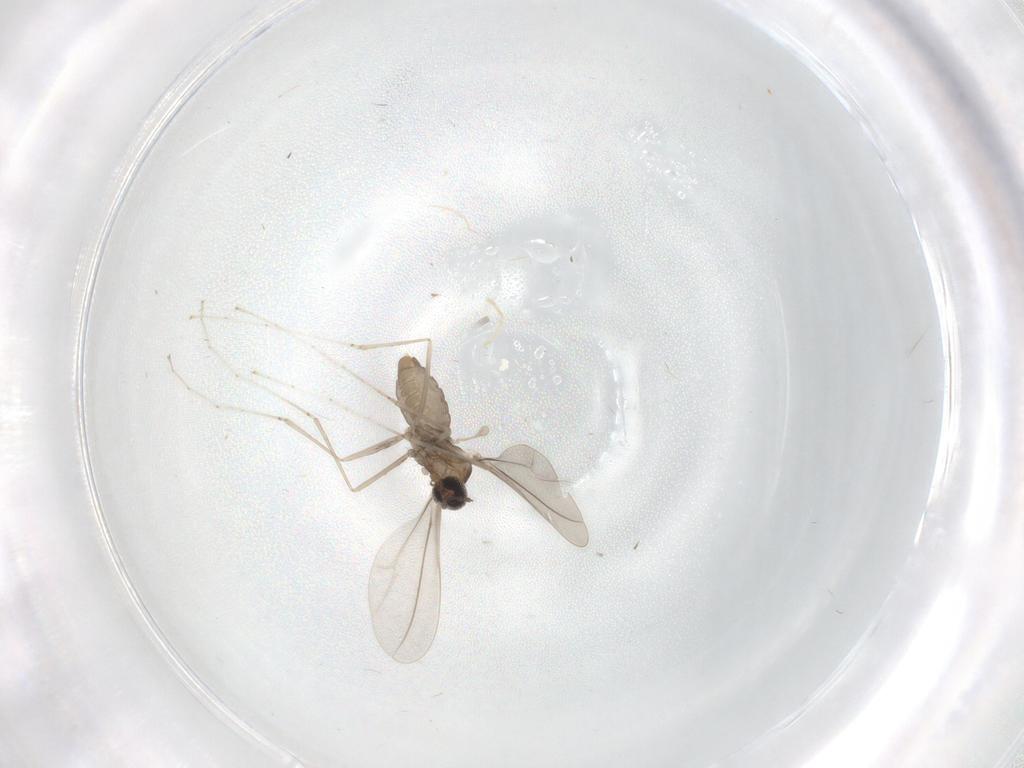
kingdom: Animalia
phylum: Arthropoda
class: Insecta
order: Diptera
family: Cecidomyiidae
